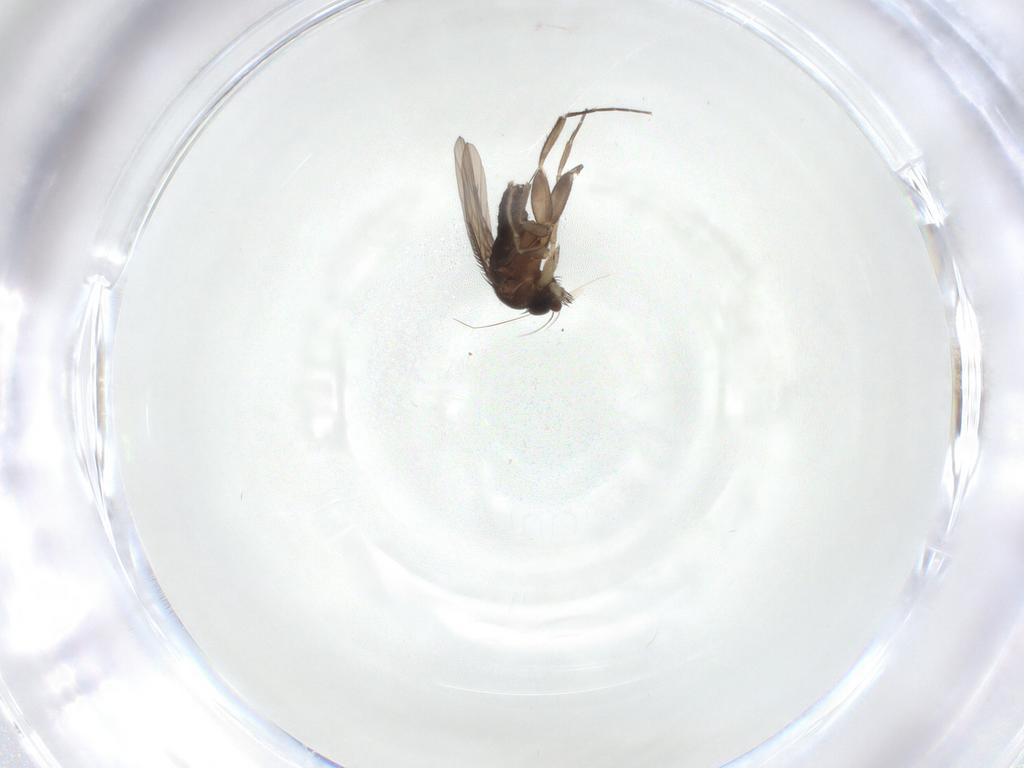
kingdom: Animalia
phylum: Arthropoda
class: Insecta
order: Diptera
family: Phoridae
